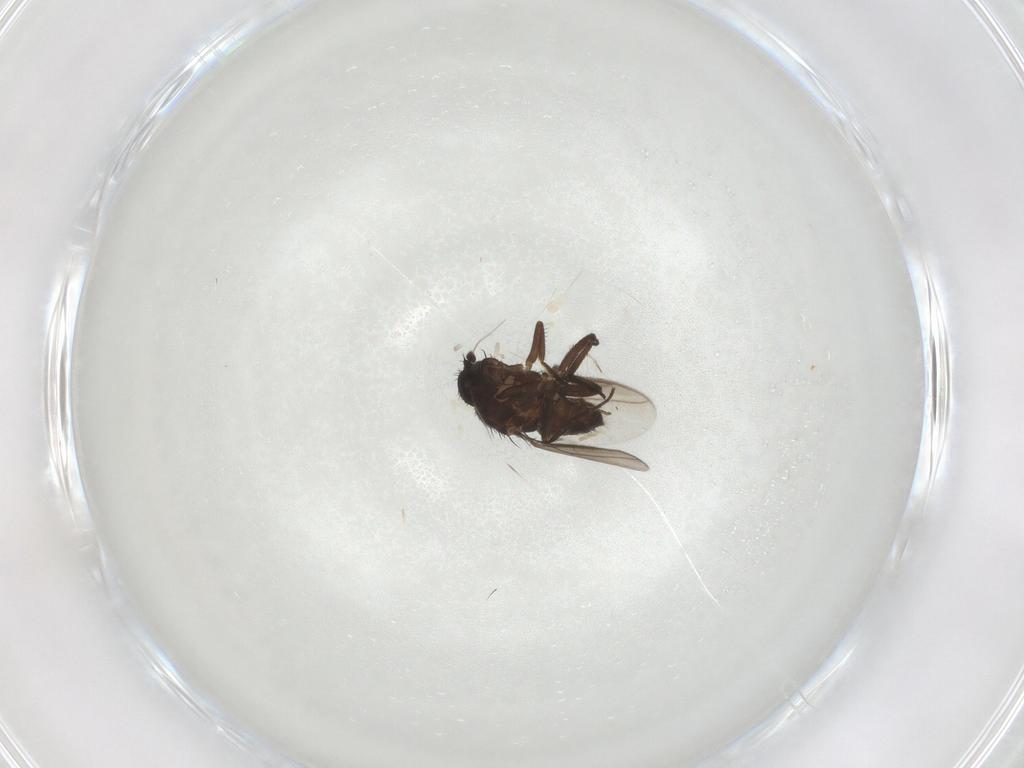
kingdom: Animalia
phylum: Arthropoda
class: Insecta
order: Diptera
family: Sphaeroceridae
